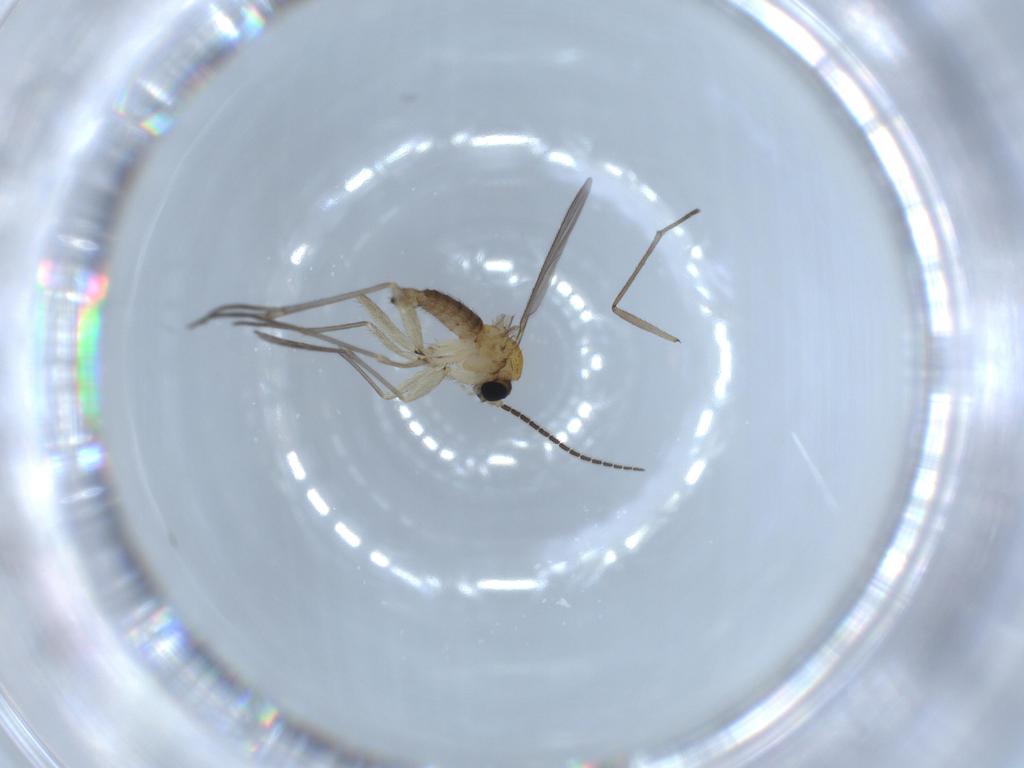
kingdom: Animalia
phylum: Arthropoda
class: Insecta
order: Diptera
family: Sciaridae
